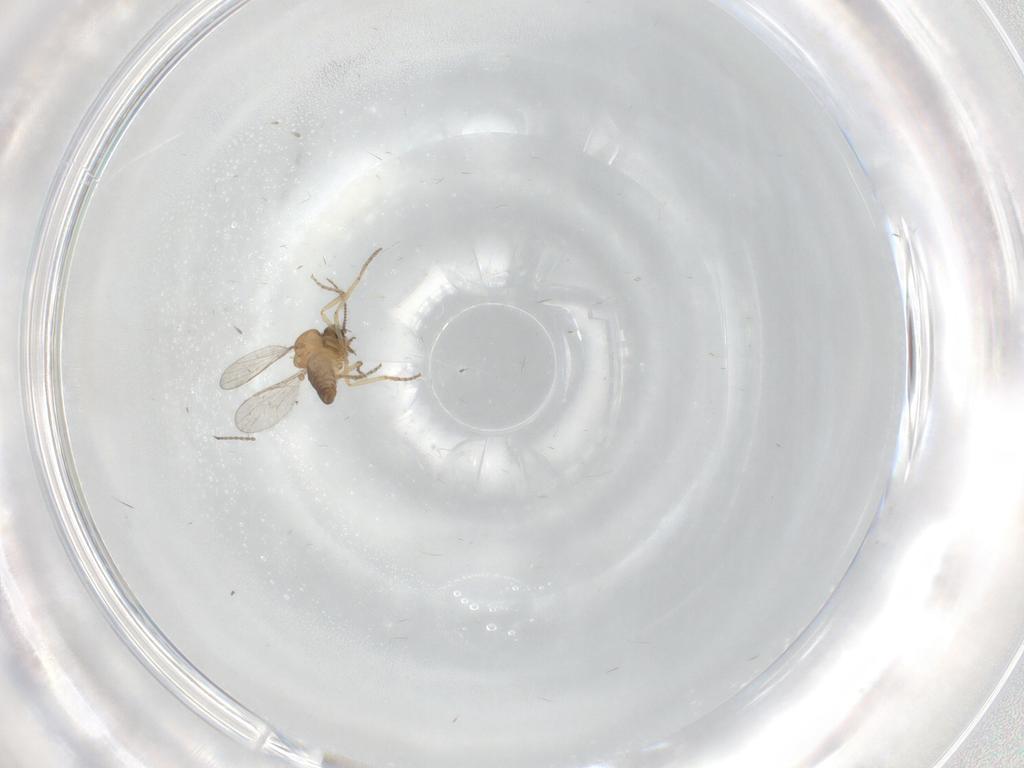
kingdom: Animalia
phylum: Arthropoda
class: Insecta
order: Diptera
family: Ceratopogonidae
